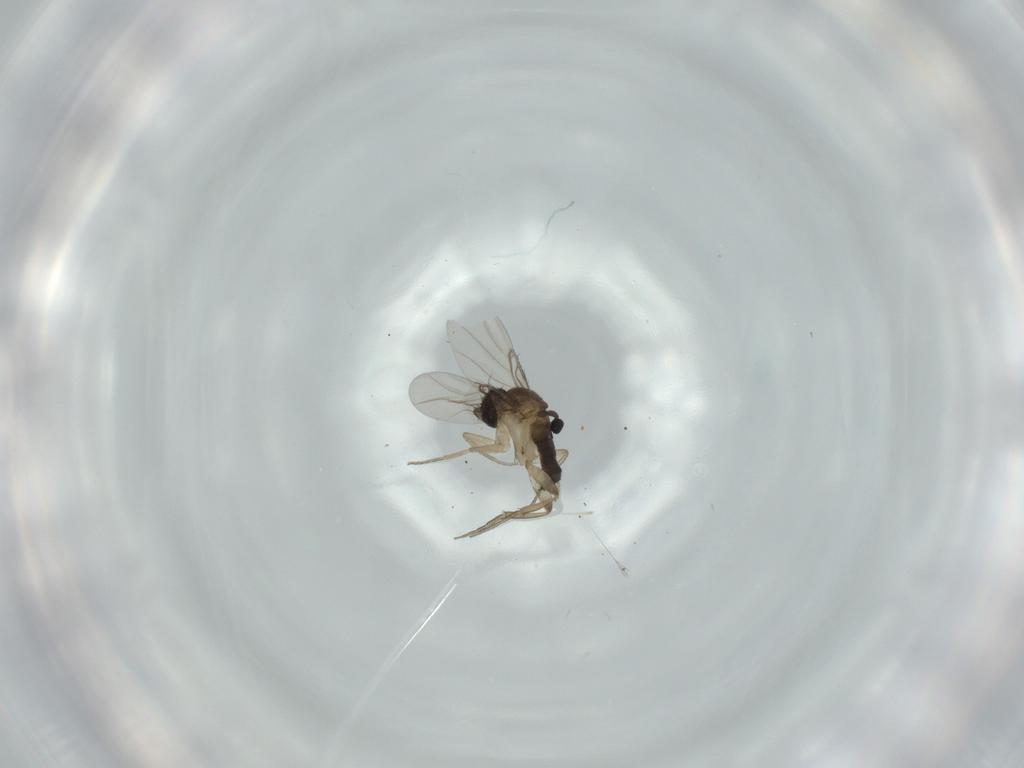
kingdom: Animalia
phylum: Arthropoda
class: Insecta
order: Diptera
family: Phoridae
